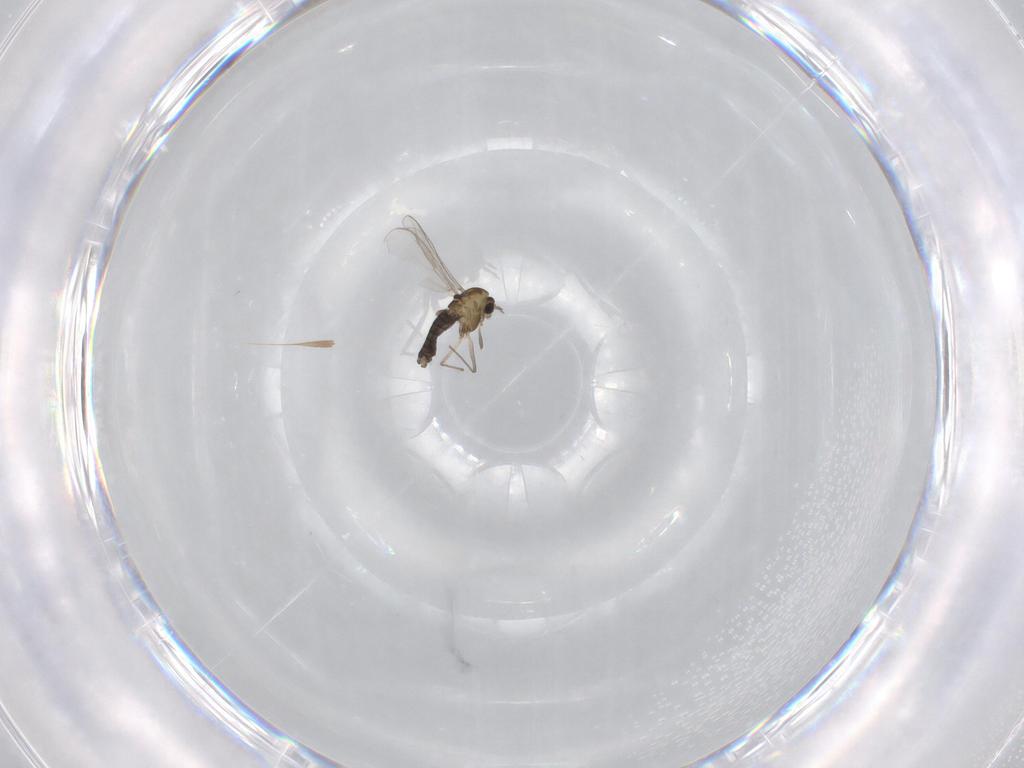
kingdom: Animalia
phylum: Arthropoda
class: Insecta
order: Diptera
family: Chironomidae
